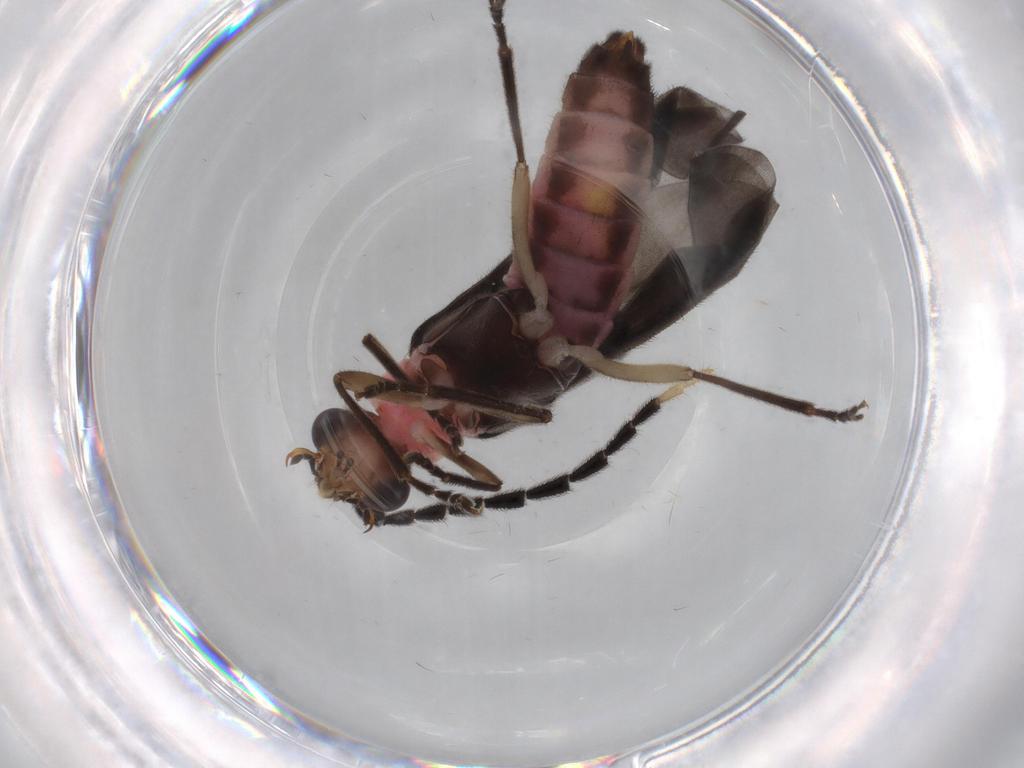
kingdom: Animalia
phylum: Arthropoda
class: Insecta
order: Coleoptera
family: Cantharidae
